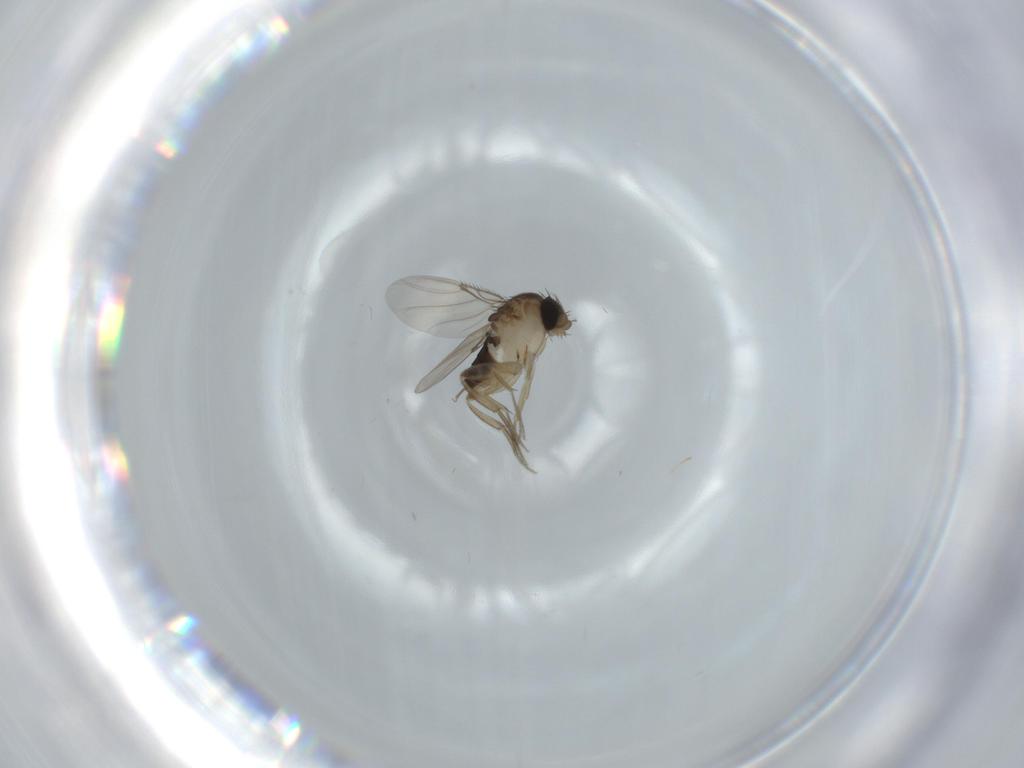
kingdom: Animalia
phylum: Arthropoda
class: Insecta
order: Diptera
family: Phoridae
